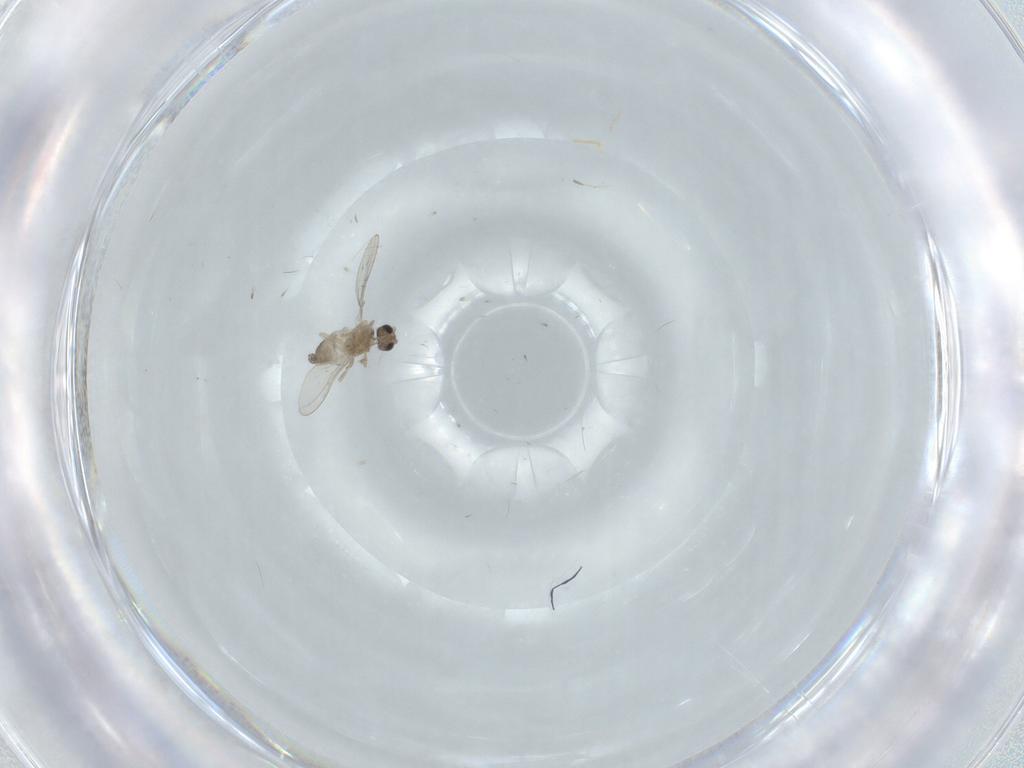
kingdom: Animalia
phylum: Arthropoda
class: Insecta
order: Diptera
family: Cecidomyiidae
